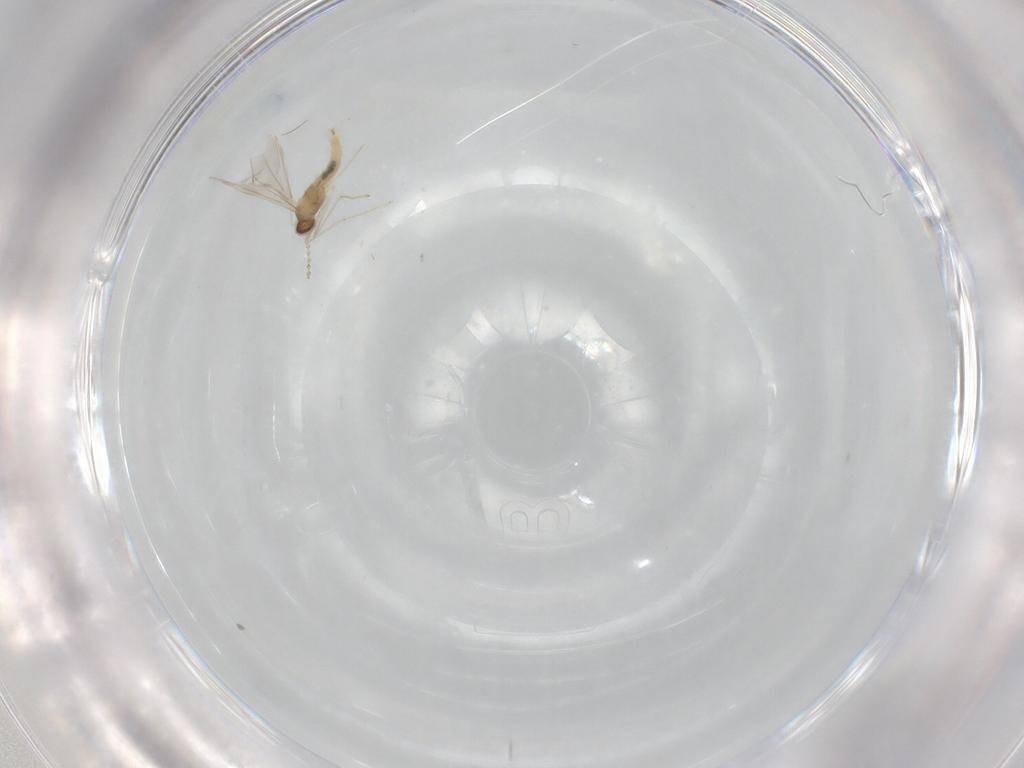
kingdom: Animalia
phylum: Arthropoda
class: Insecta
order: Diptera
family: Cecidomyiidae
